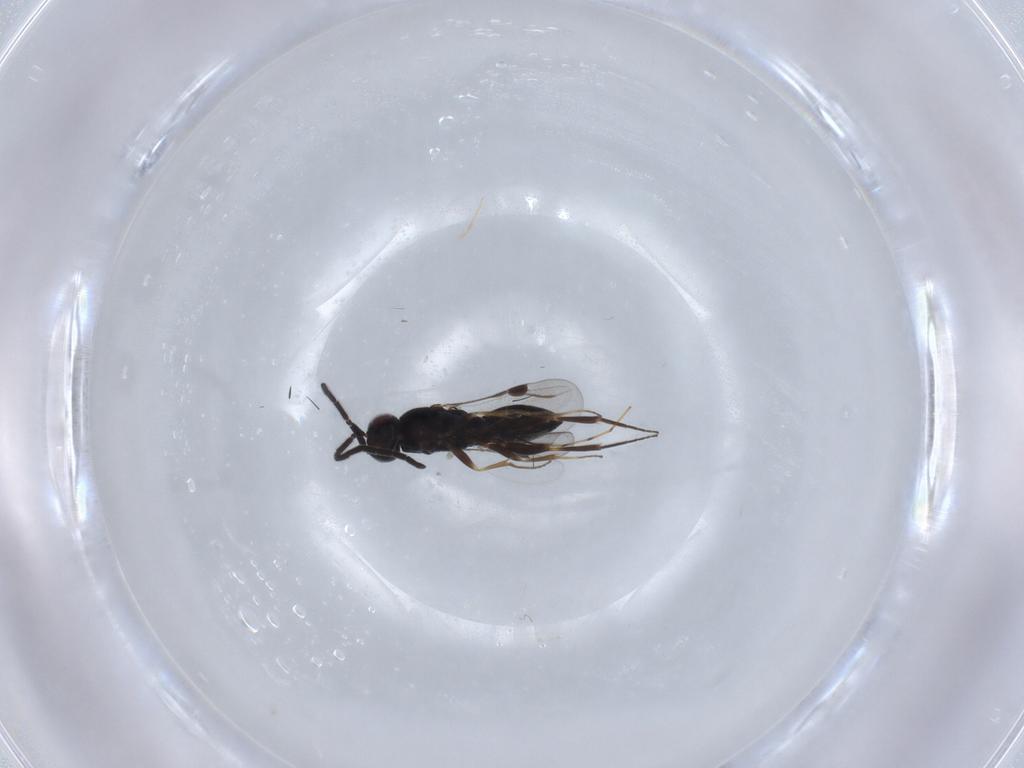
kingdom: Animalia
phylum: Arthropoda
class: Insecta
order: Hymenoptera
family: Megaspilidae
